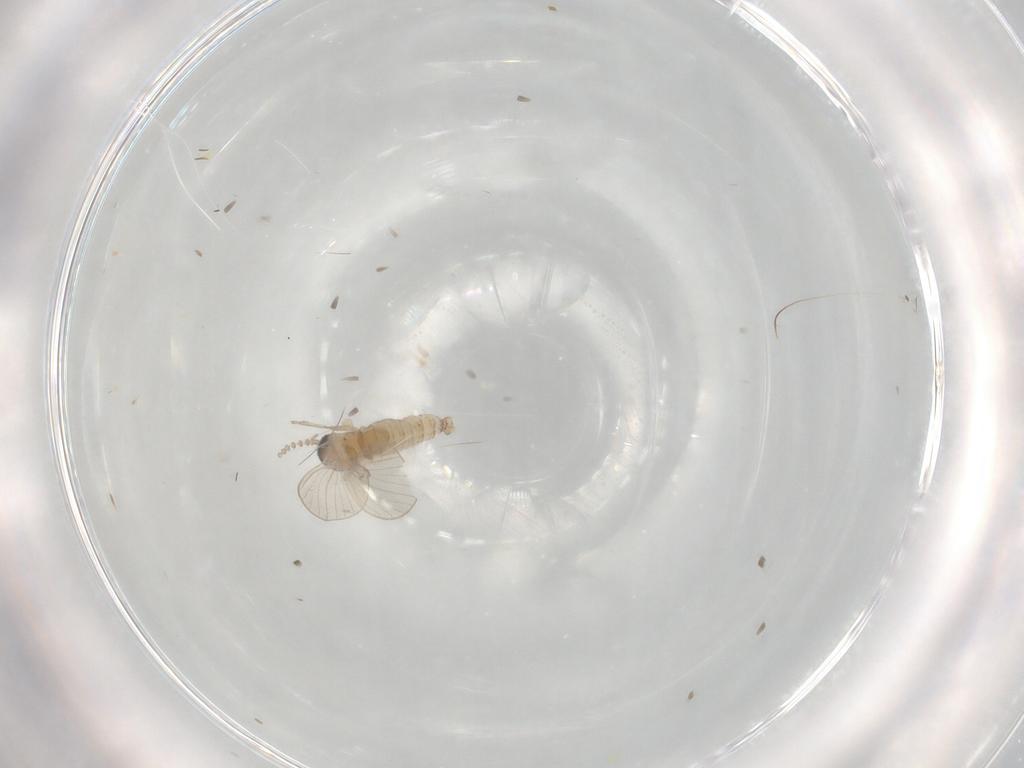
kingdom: Animalia
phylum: Arthropoda
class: Insecta
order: Diptera
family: Psychodidae
